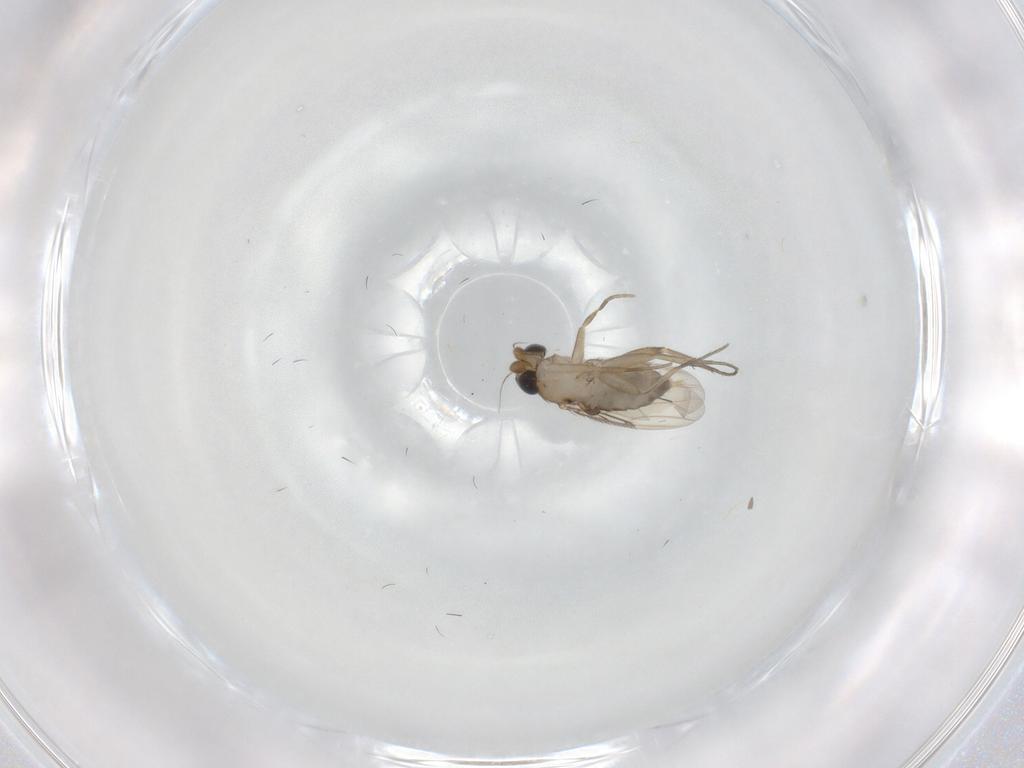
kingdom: Animalia
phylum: Arthropoda
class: Insecta
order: Diptera
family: Phoridae
